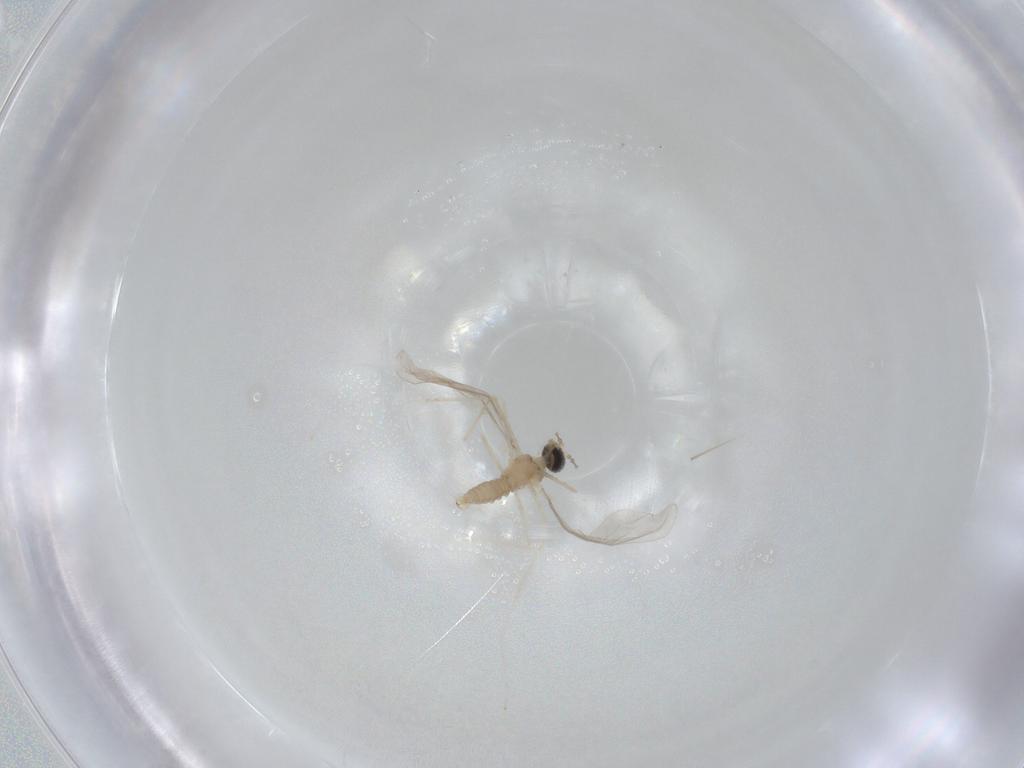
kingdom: Animalia
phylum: Arthropoda
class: Insecta
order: Diptera
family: Cecidomyiidae
